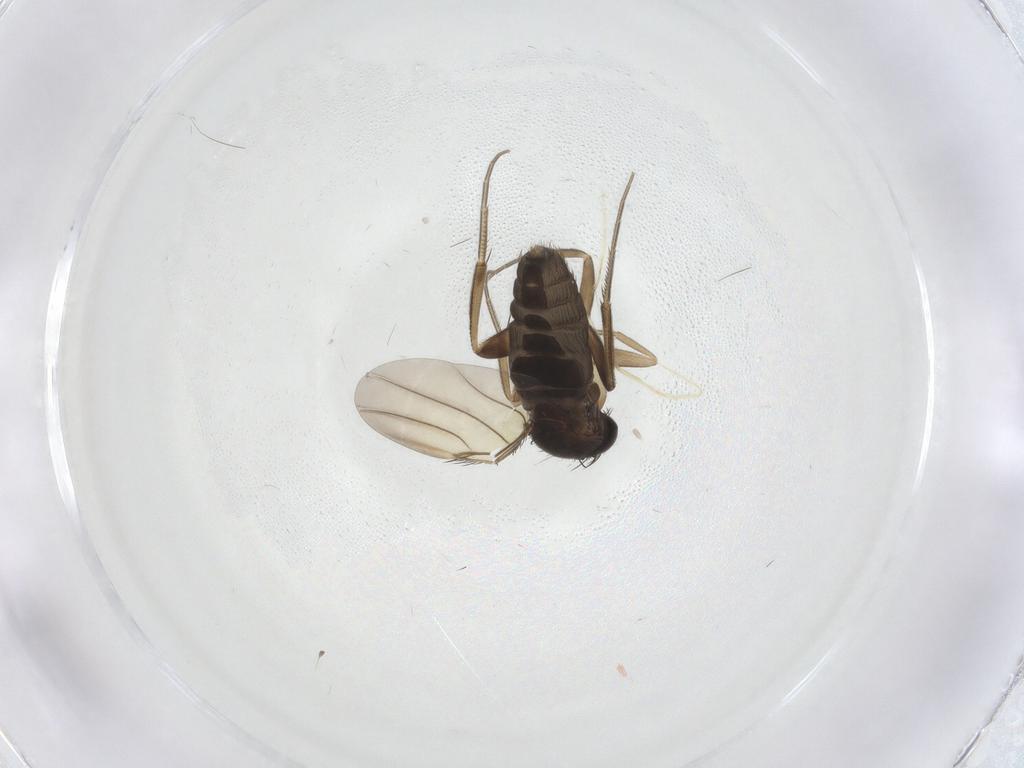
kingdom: Animalia
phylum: Arthropoda
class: Insecta
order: Diptera
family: Phoridae
